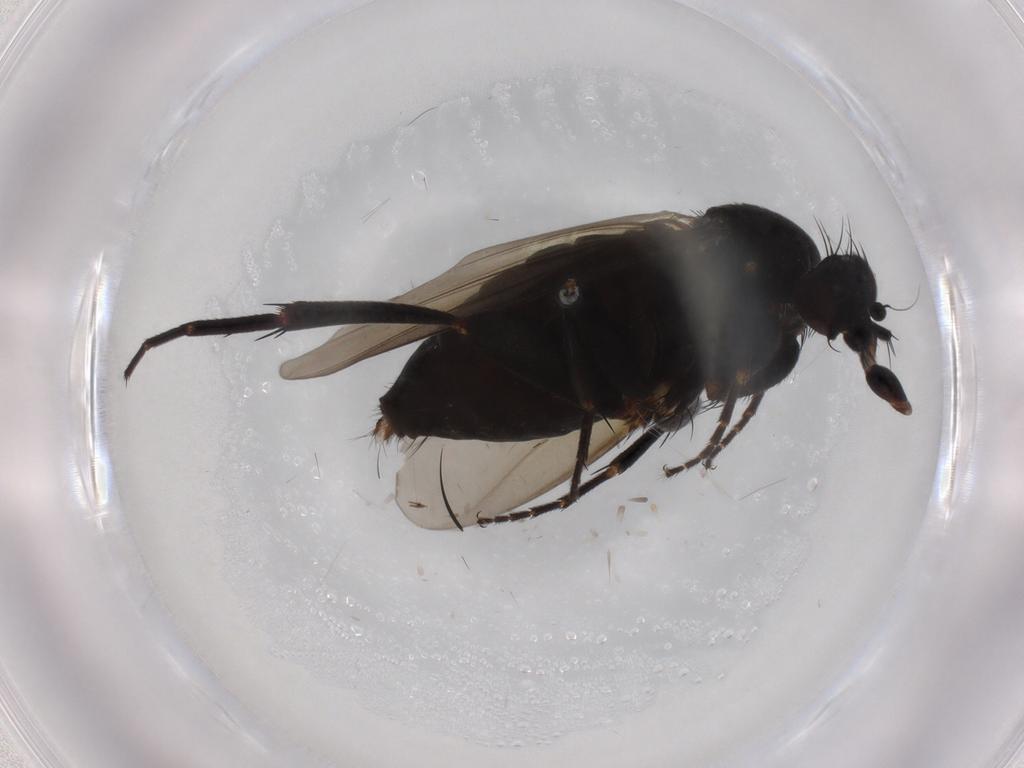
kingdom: Animalia
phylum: Arthropoda
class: Insecta
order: Diptera
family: Phoridae
